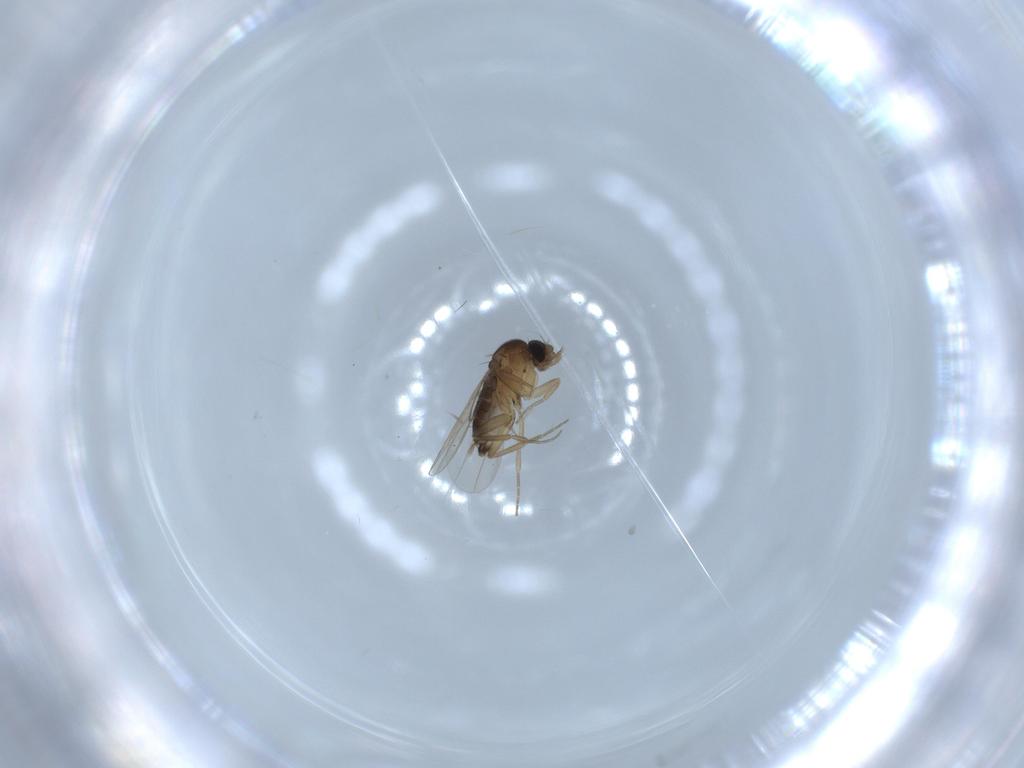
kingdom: Animalia
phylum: Arthropoda
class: Insecta
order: Diptera
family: Phoridae
